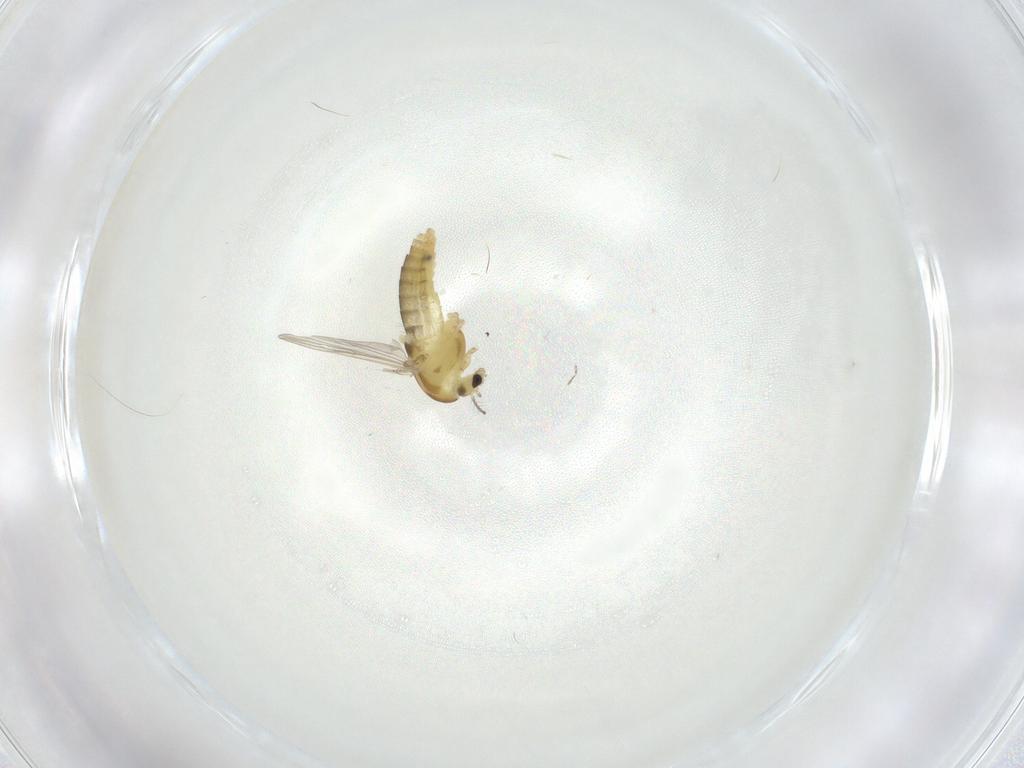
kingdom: Animalia
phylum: Arthropoda
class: Insecta
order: Diptera
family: Chironomidae
